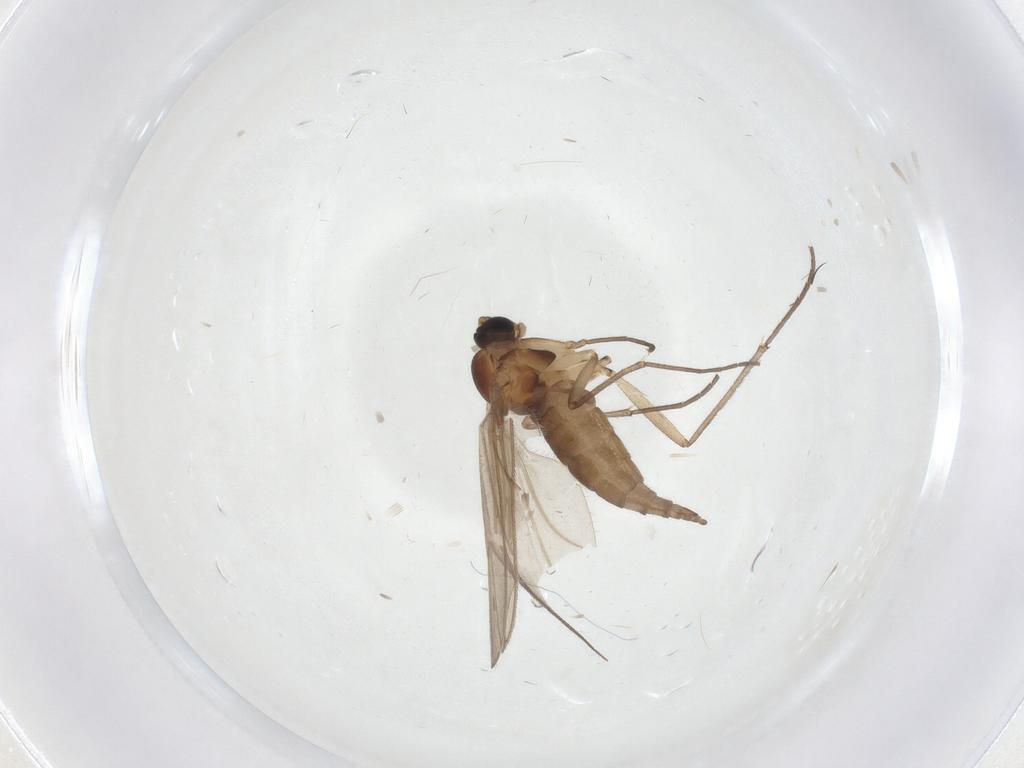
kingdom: Animalia
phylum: Arthropoda
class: Insecta
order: Diptera
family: Sciaridae
